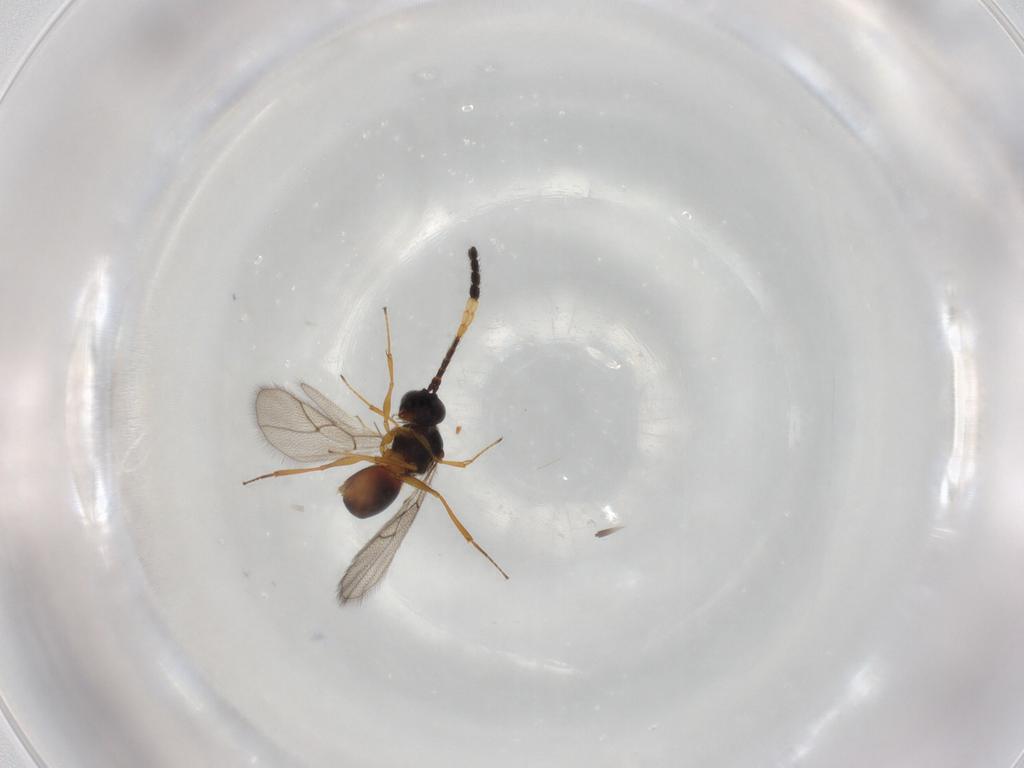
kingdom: Animalia
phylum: Arthropoda
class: Insecta
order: Hymenoptera
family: Figitidae
